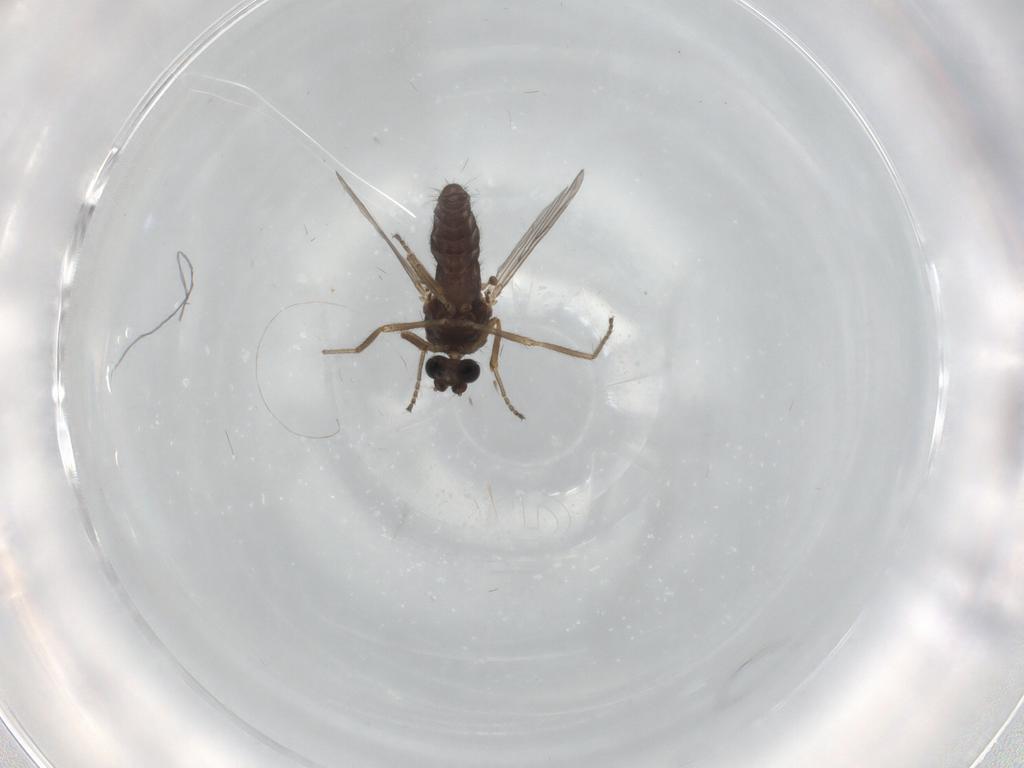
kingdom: Animalia
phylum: Arthropoda
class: Insecta
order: Diptera
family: Ceratopogonidae
